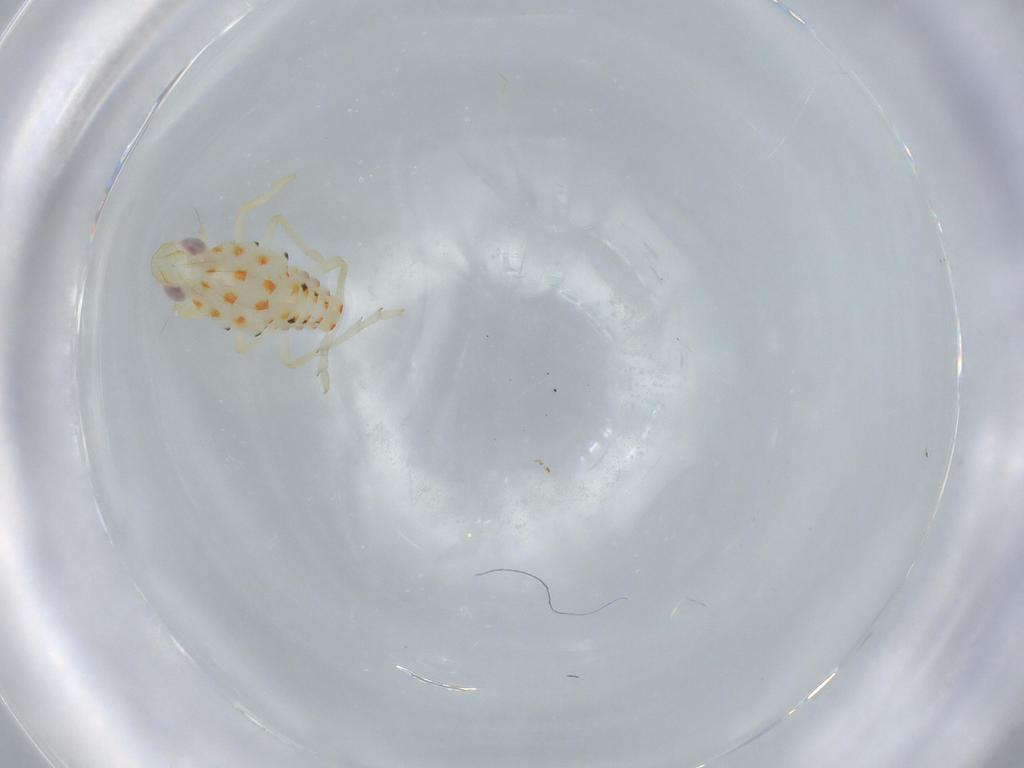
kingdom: Animalia
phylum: Arthropoda
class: Insecta
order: Hemiptera
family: Tropiduchidae
